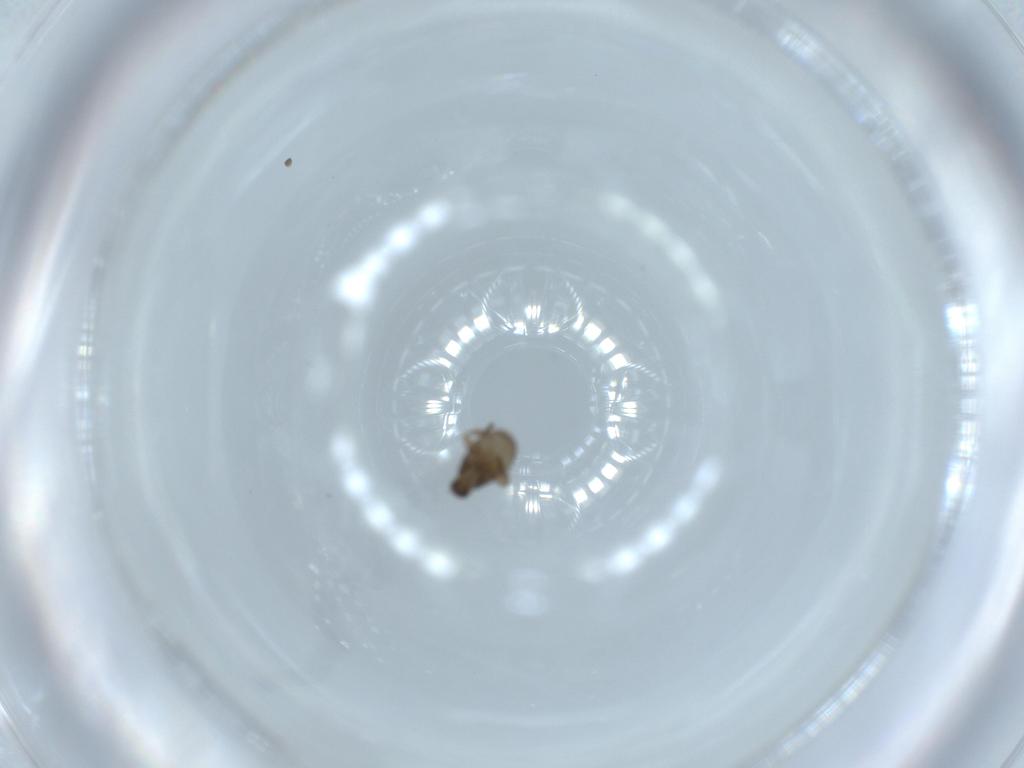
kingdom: Animalia
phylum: Arthropoda
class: Insecta
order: Diptera
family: Phoridae
